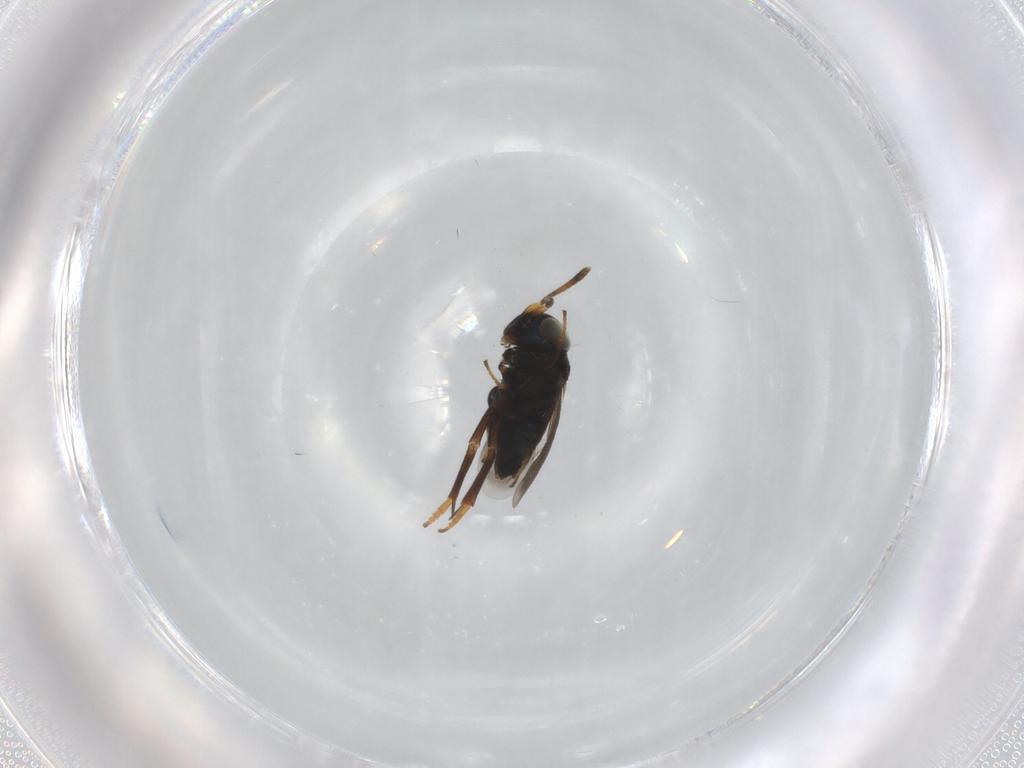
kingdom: Animalia
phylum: Arthropoda
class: Insecta
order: Hymenoptera
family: Encyrtidae
